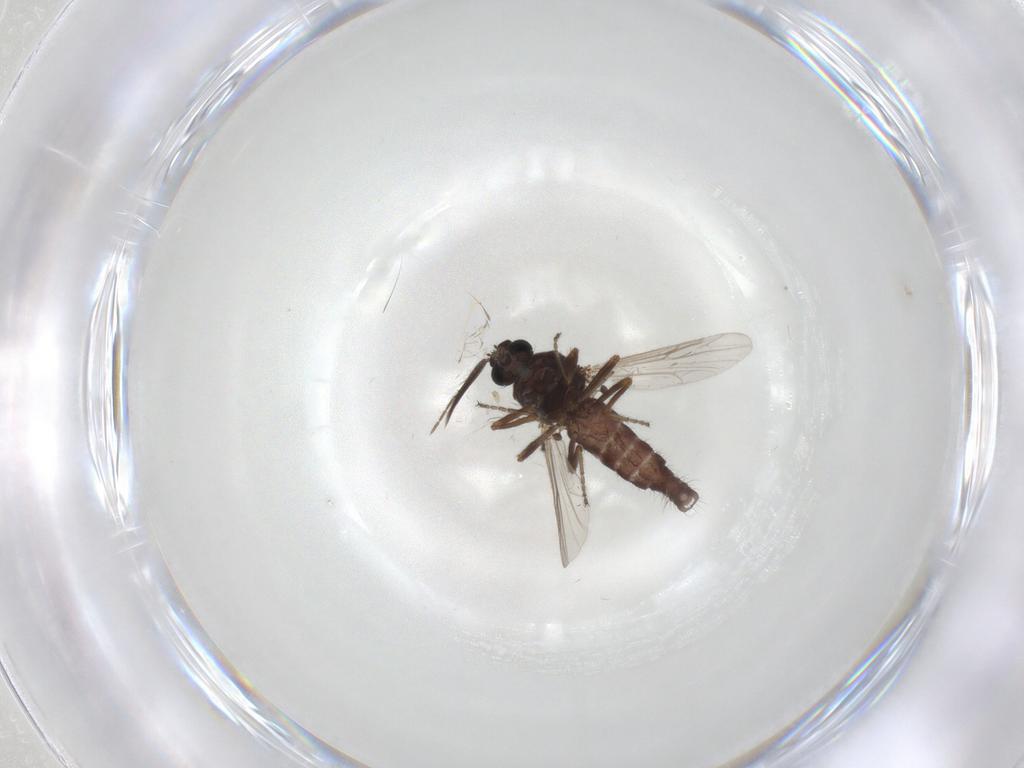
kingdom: Animalia
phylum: Arthropoda
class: Insecta
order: Diptera
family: Ceratopogonidae
